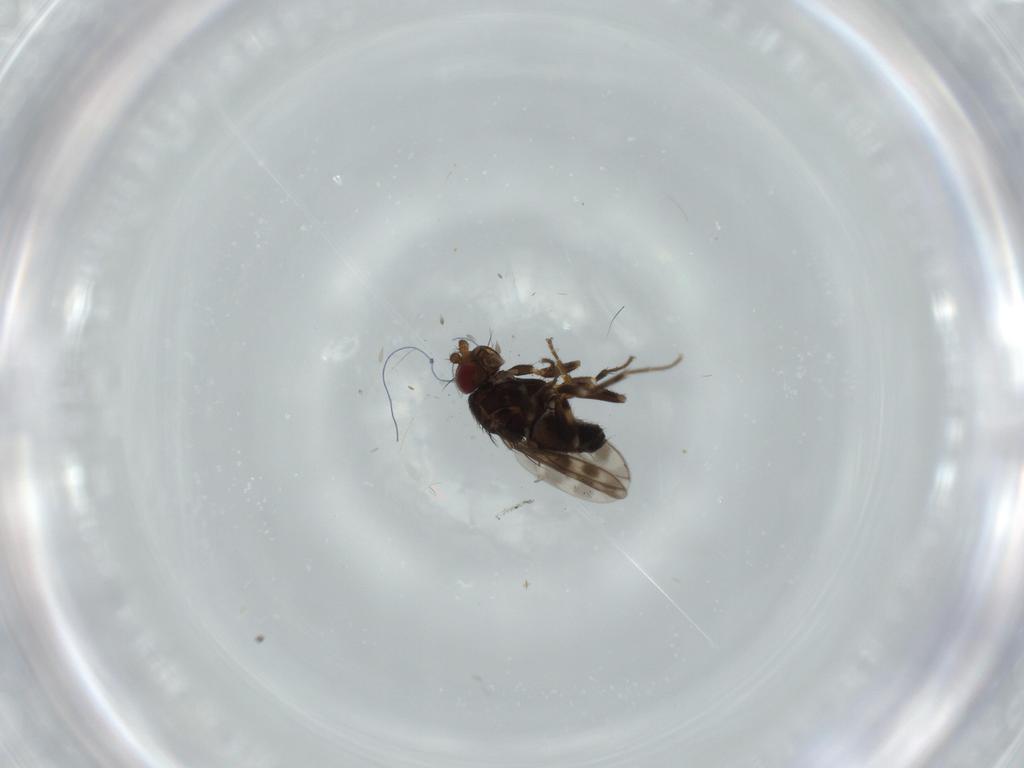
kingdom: Animalia
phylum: Arthropoda
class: Insecta
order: Diptera
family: Sphaeroceridae
